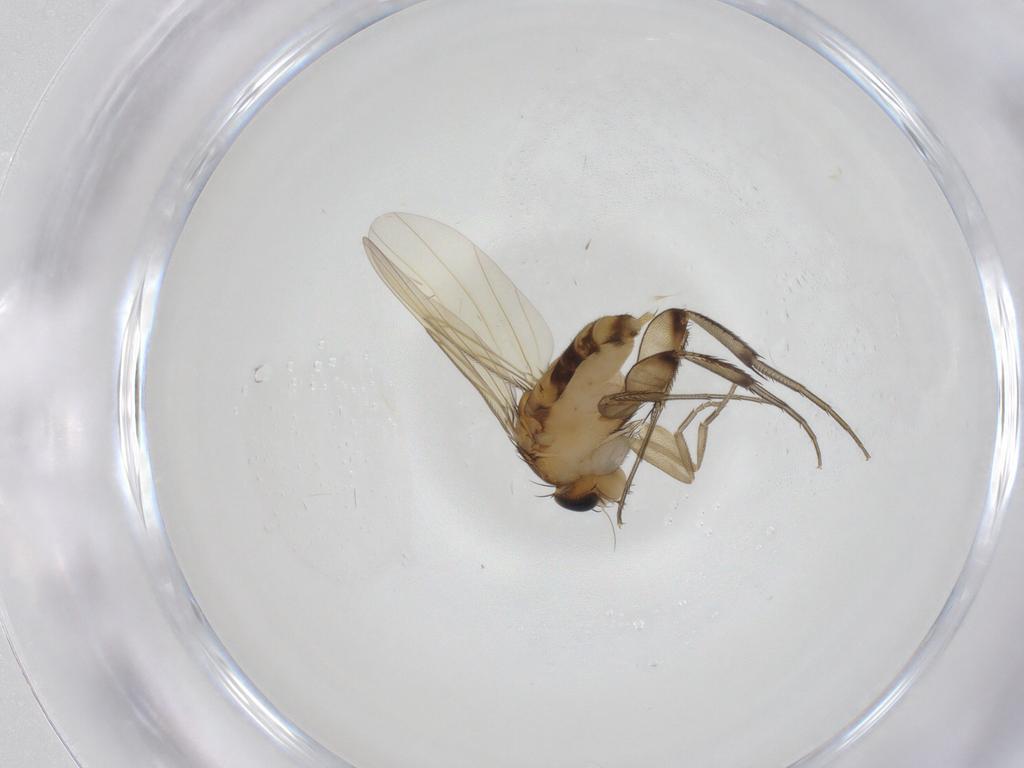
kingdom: Animalia
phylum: Arthropoda
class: Insecta
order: Diptera
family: Phoridae
